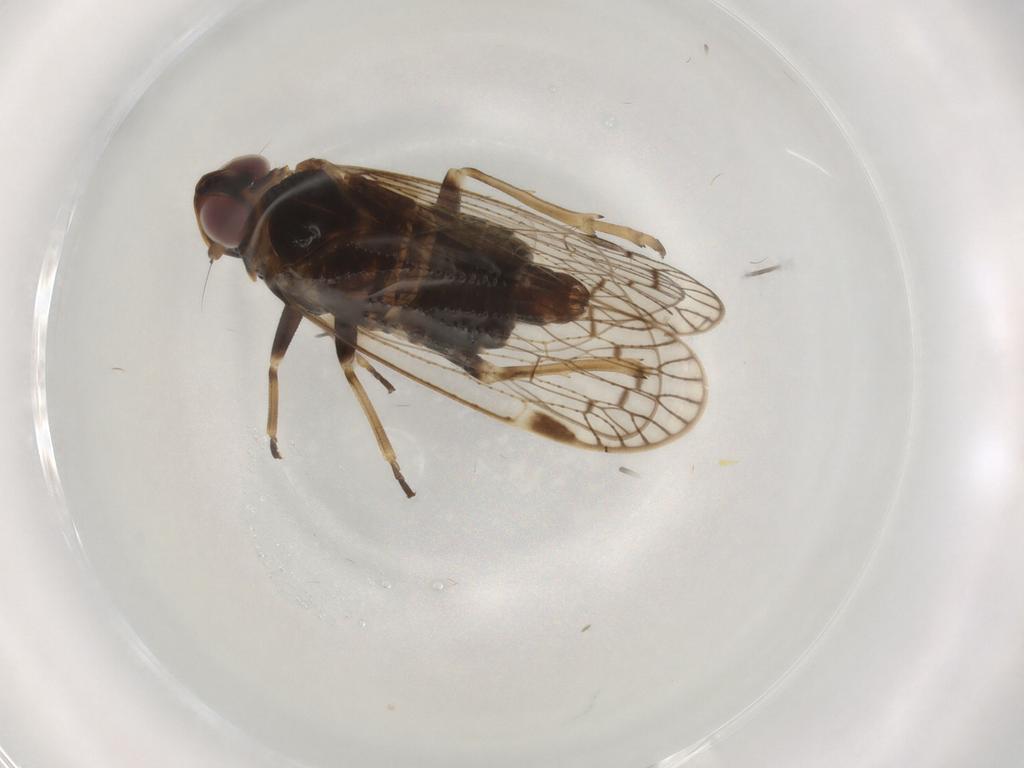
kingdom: Animalia
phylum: Arthropoda
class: Insecta
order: Hemiptera
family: Cixiidae
